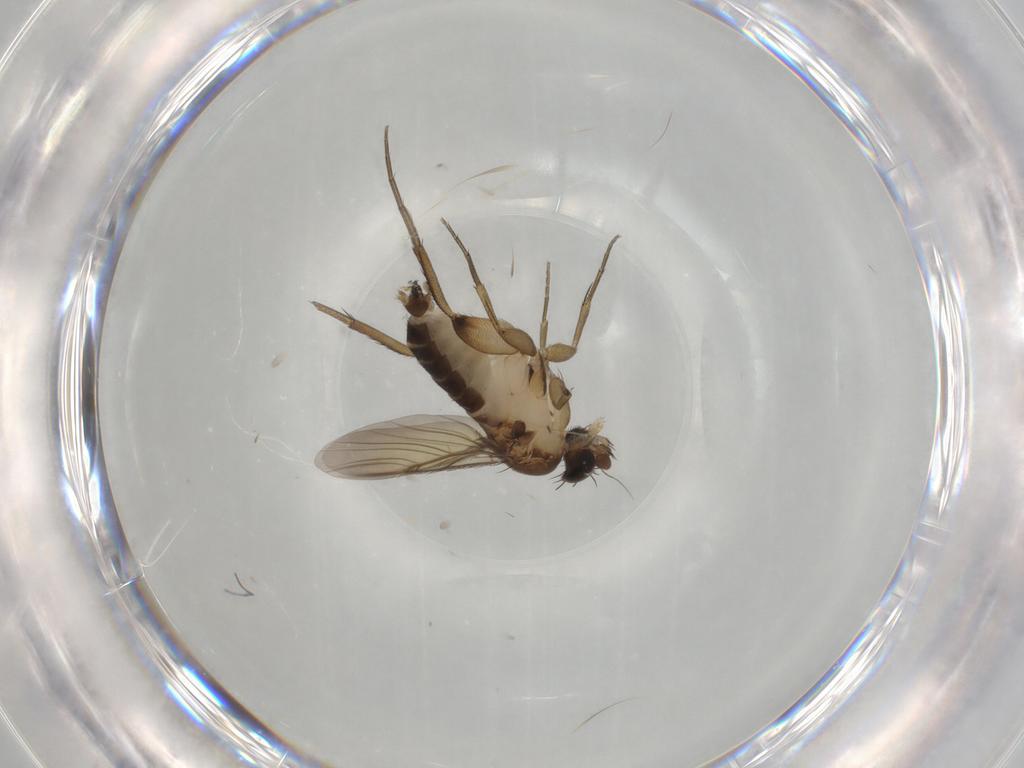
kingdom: Animalia
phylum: Arthropoda
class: Insecta
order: Diptera
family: Phoridae
